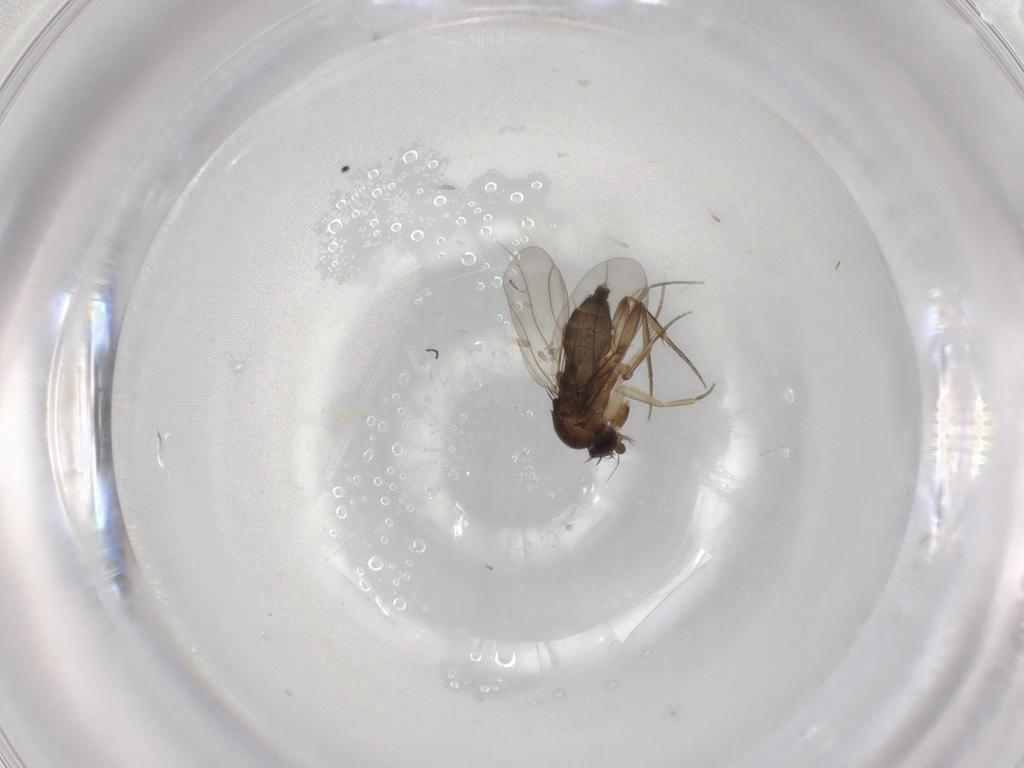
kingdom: Animalia
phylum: Arthropoda
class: Insecta
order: Diptera
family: Phoridae
